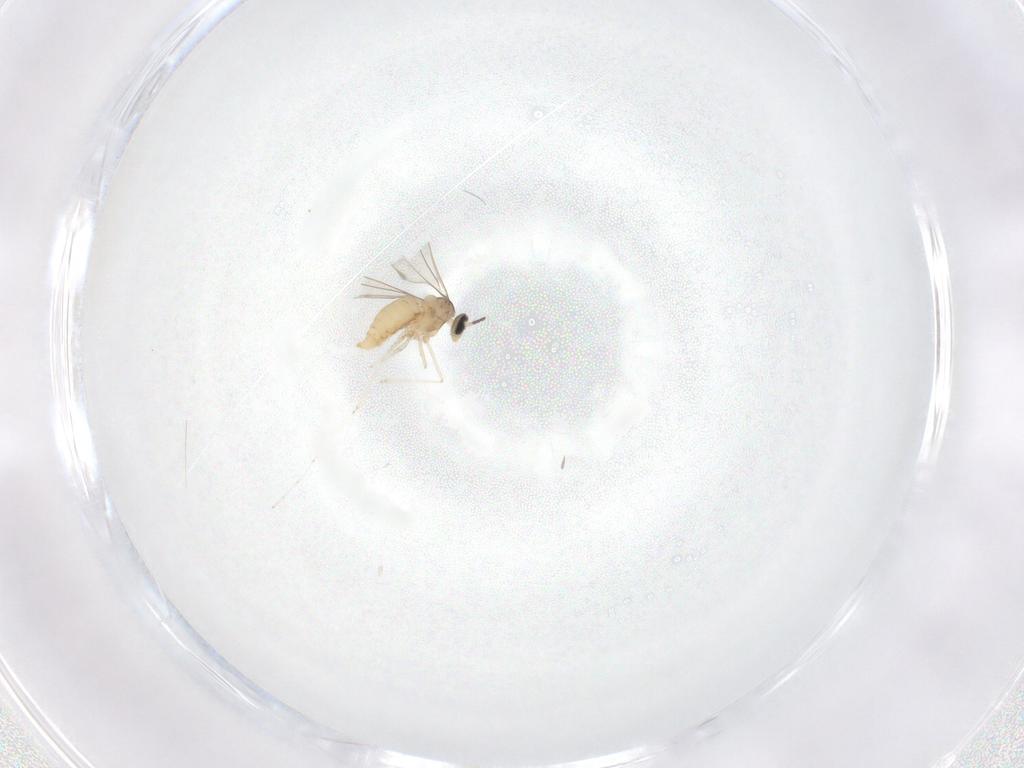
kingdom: Animalia
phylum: Arthropoda
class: Insecta
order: Diptera
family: Cecidomyiidae
